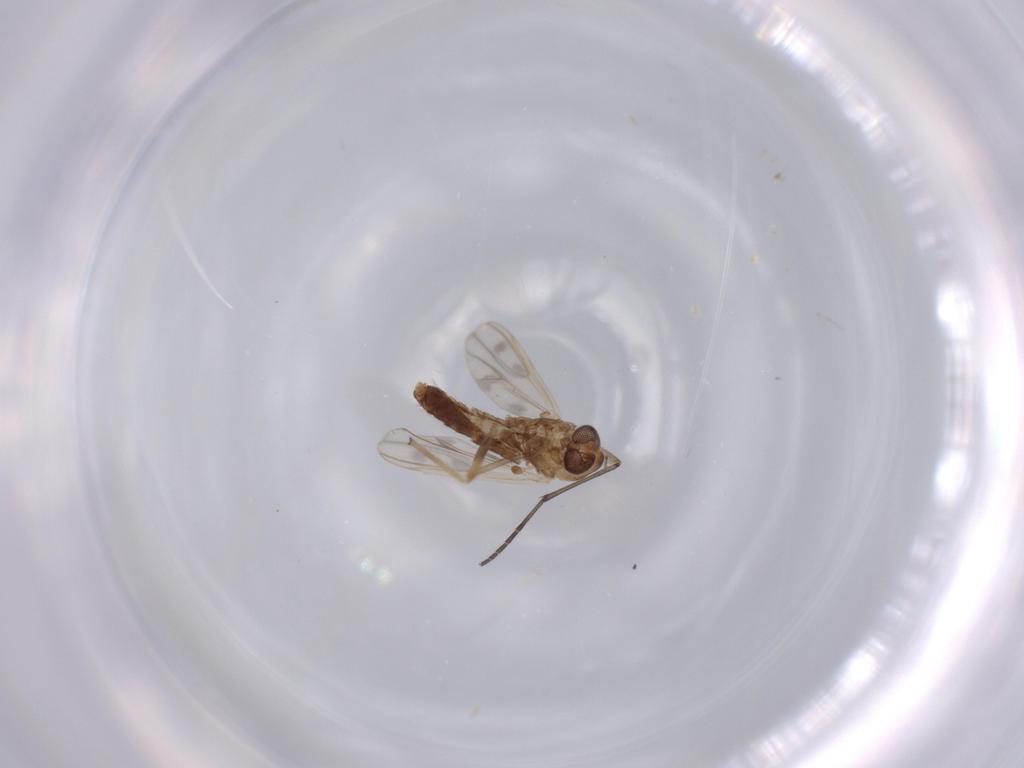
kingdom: Animalia
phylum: Arthropoda
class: Insecta
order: Diptera
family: Chironomidae
